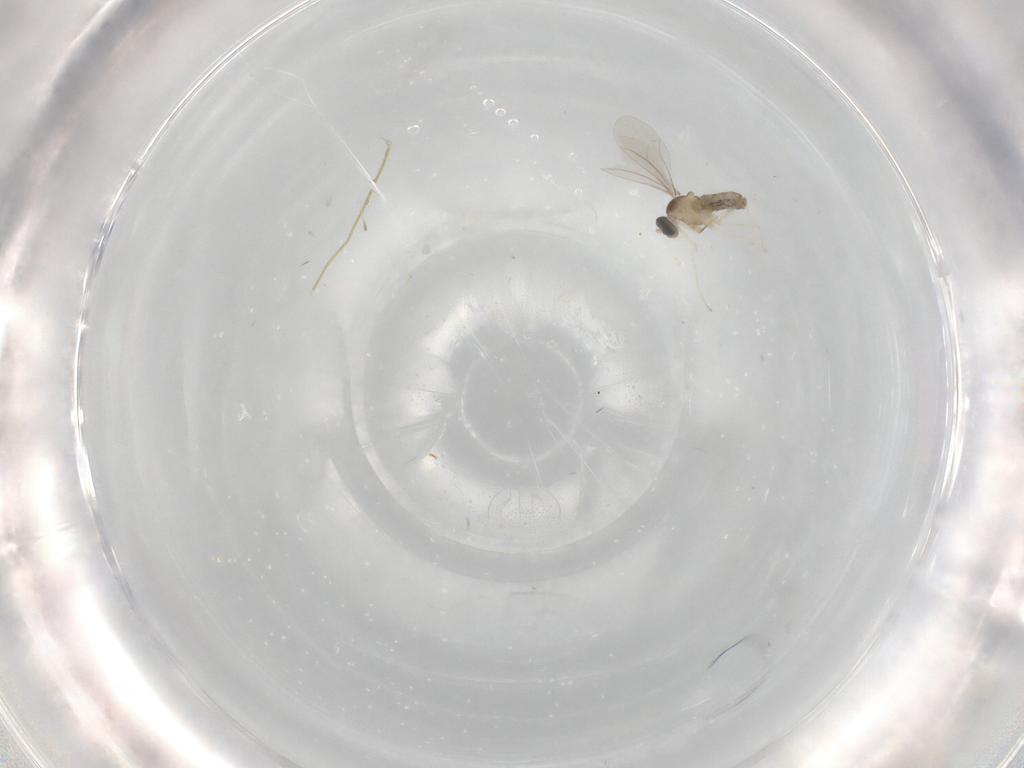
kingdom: Animalia
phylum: Arthropoda
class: Insecta
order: Diptera
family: Cecidomyiidae
